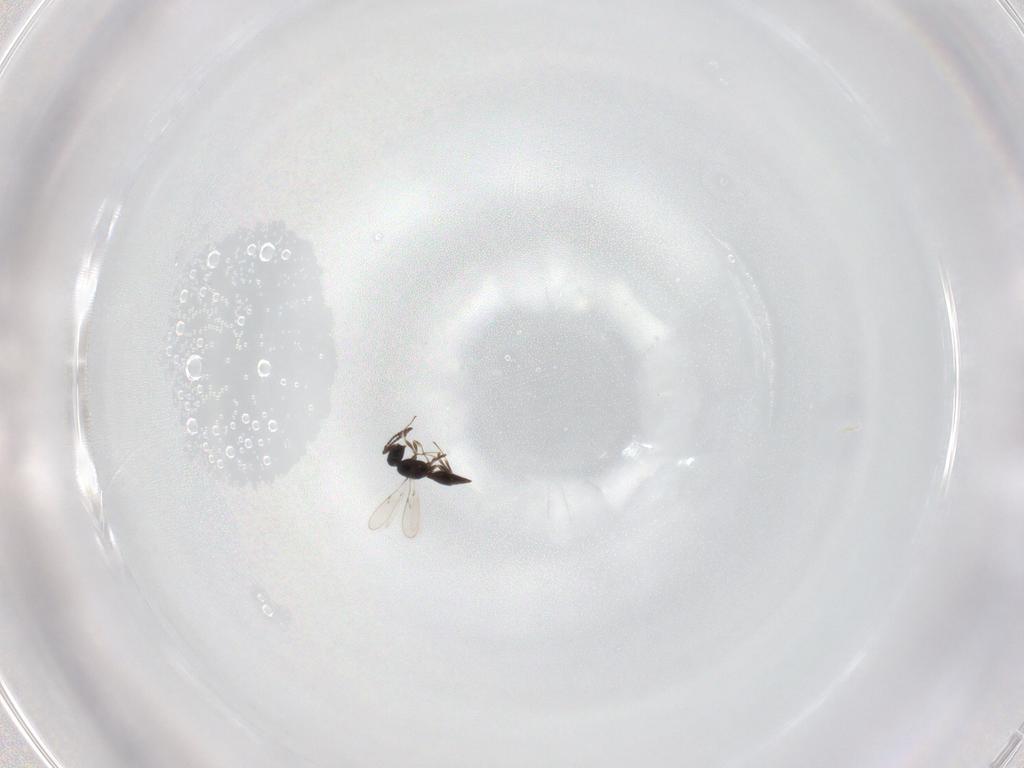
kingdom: Animalia
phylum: Arthropoda
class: Insecta
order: Hymenoptera
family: Scelionidae
